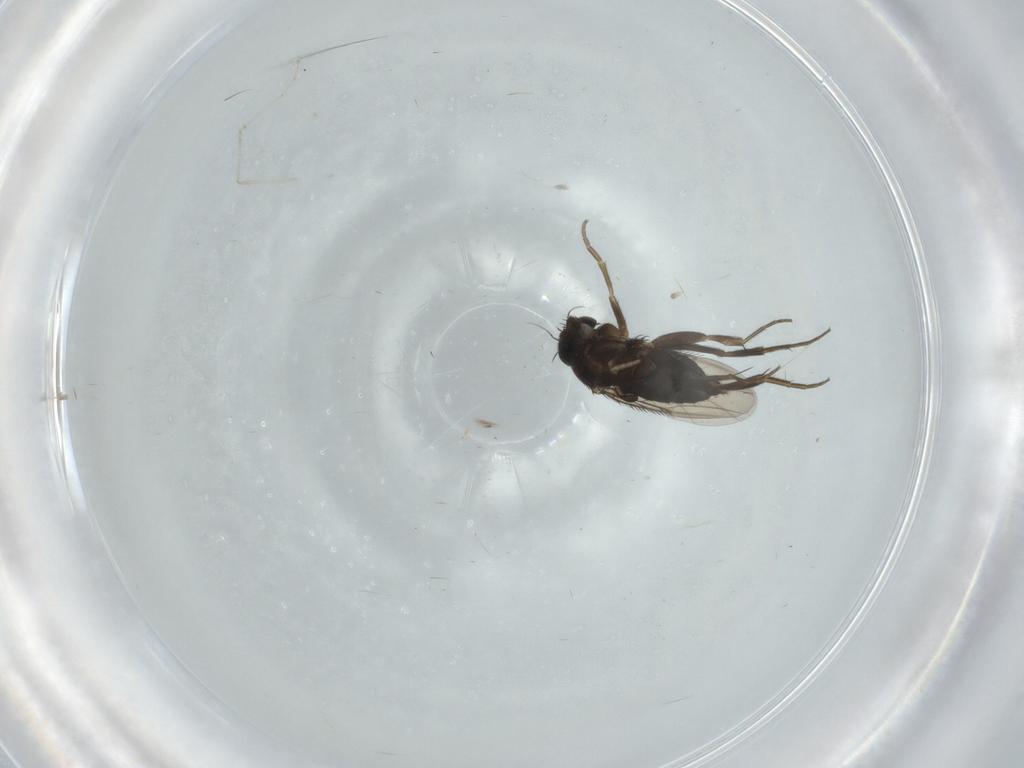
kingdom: Animalia
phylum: Arthropoda
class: Insecta
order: Diptera
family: Cecidomyiidae
